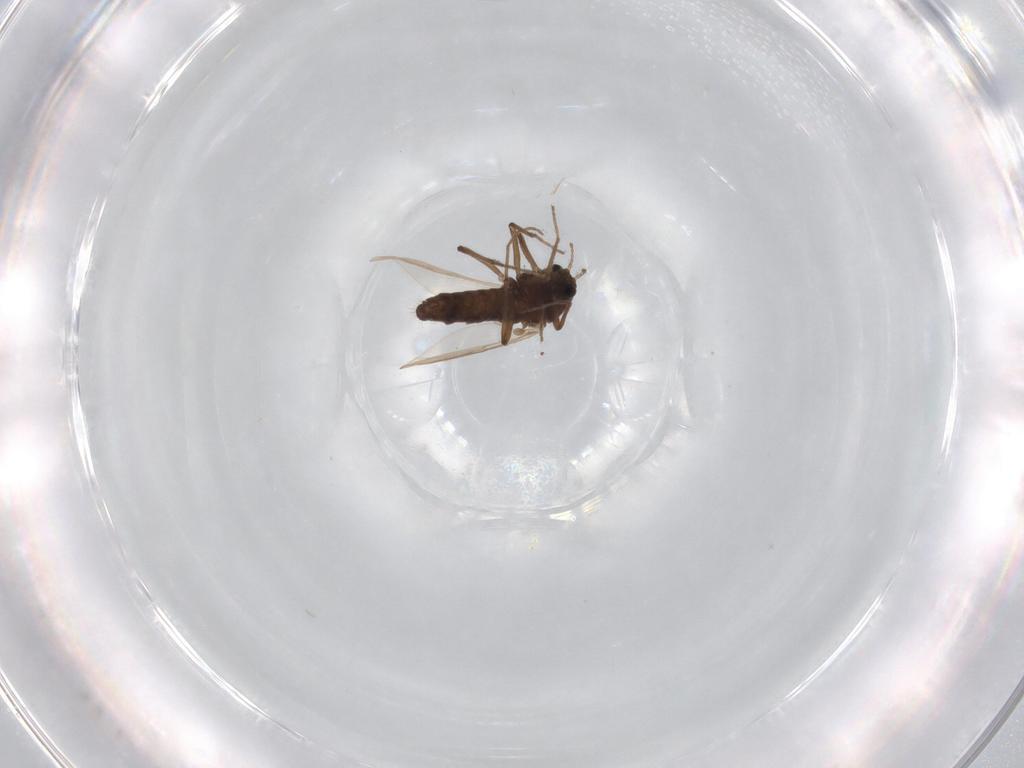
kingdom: Animalia
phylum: Arthropoda
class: Insecta
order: Diptera
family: Chironomidae
